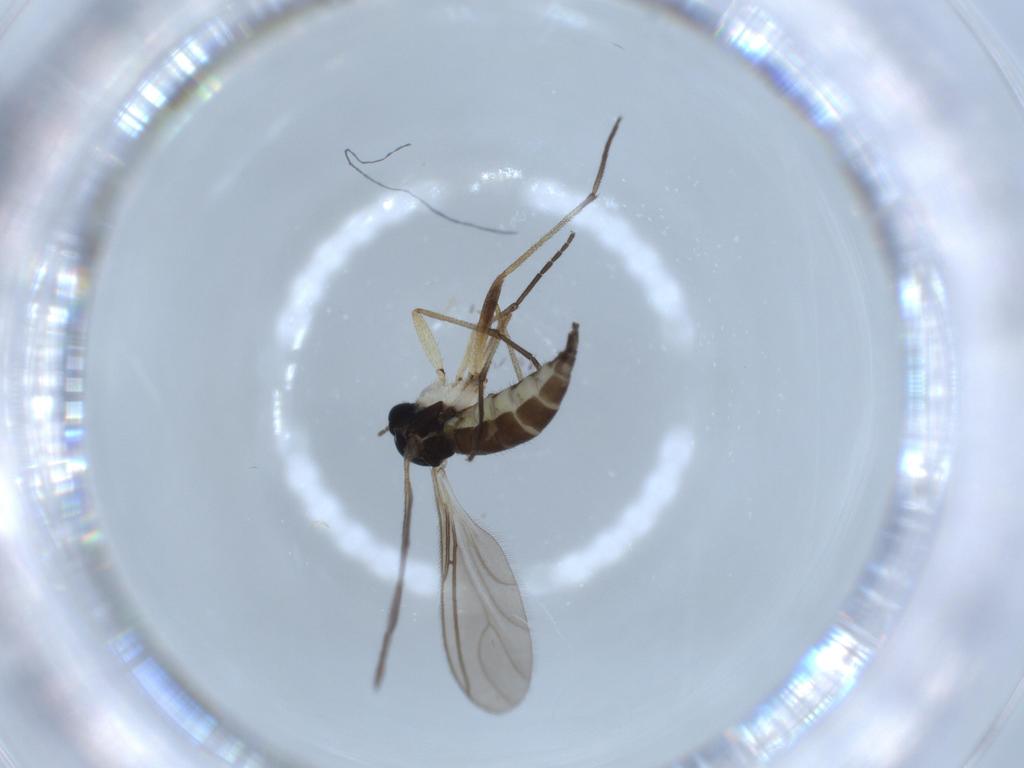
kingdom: Animalia
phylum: Arthropoda
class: Insecta
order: Diptera
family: Sciaridae
